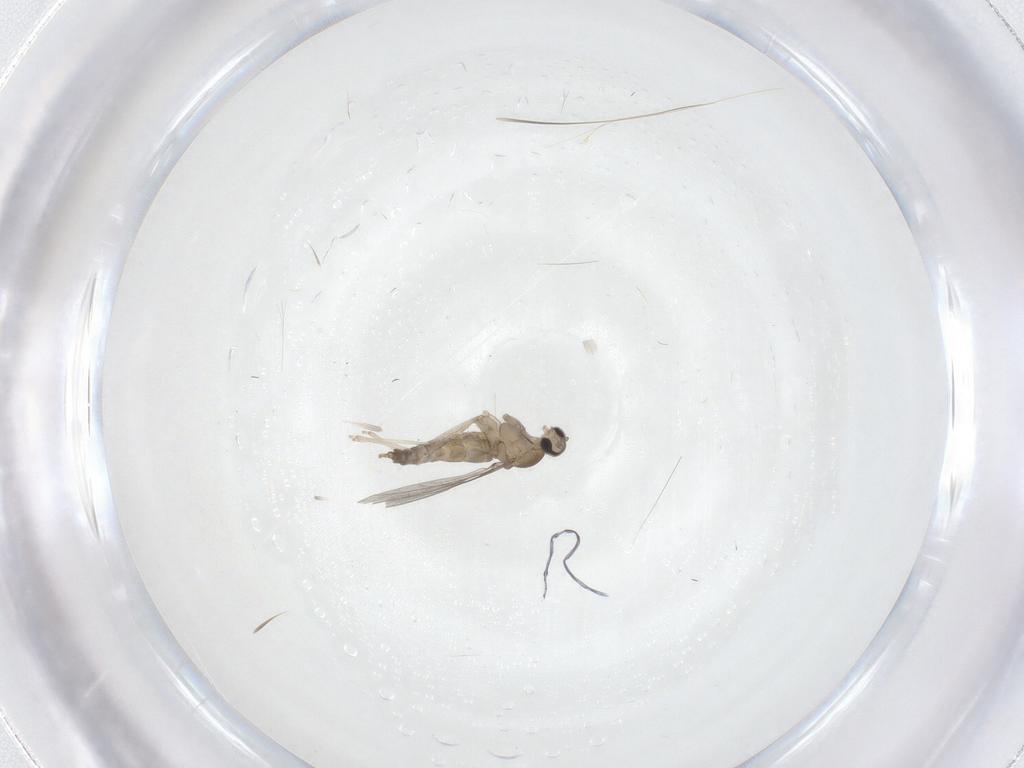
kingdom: Animalia
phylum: Arthropoda
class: Insecta
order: Diptera
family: Cecidomyiidae
